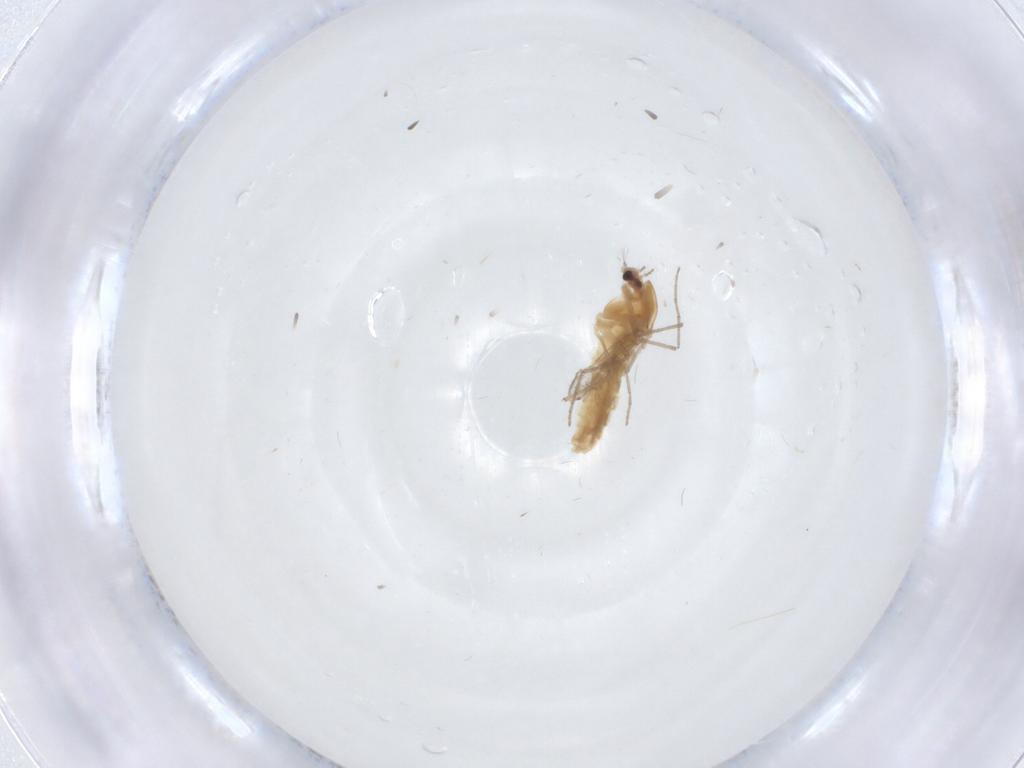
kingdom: Animalia
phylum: Arthropoda
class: Insecta
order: Diptera
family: Chironomidae
